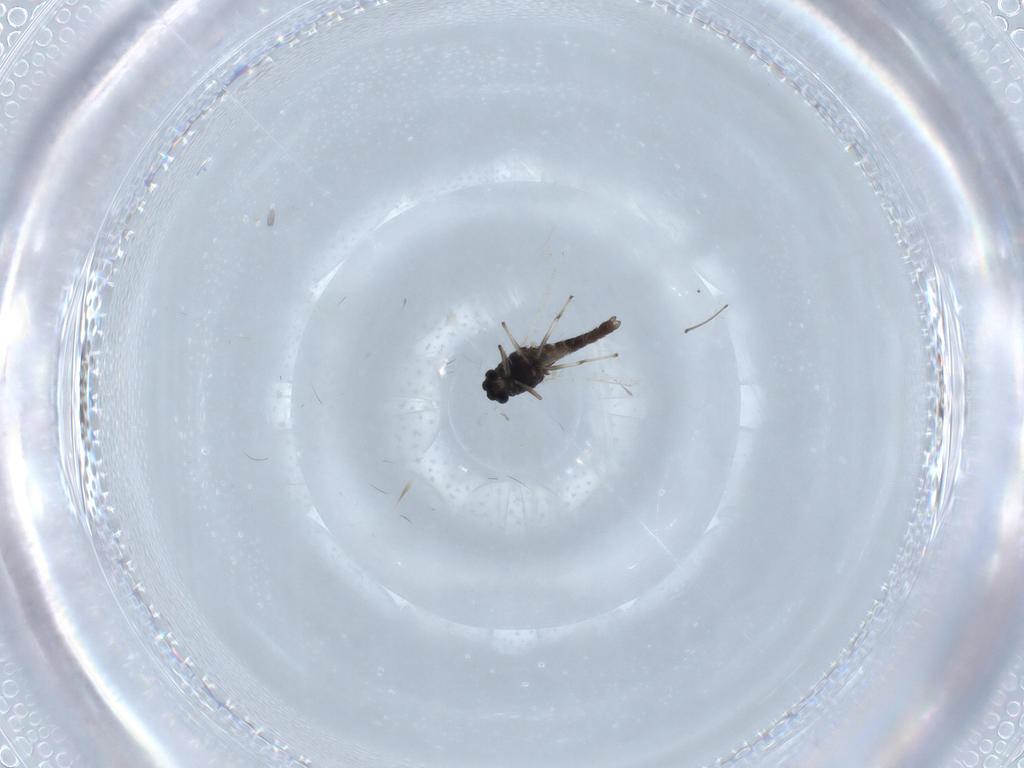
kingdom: Animalia
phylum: Arthropoda
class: Insecta
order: Diptera
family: Chironomidae
